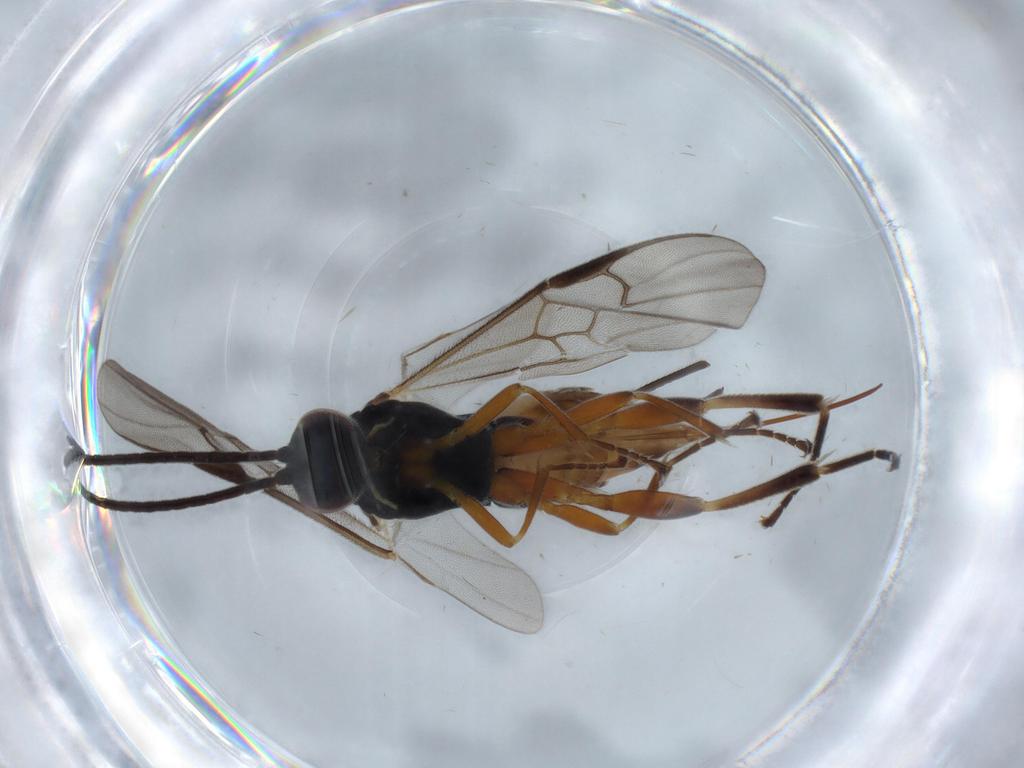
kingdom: Animalia
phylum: Arthropoda
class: Insecta
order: Hymenoptera
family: Braconidae
